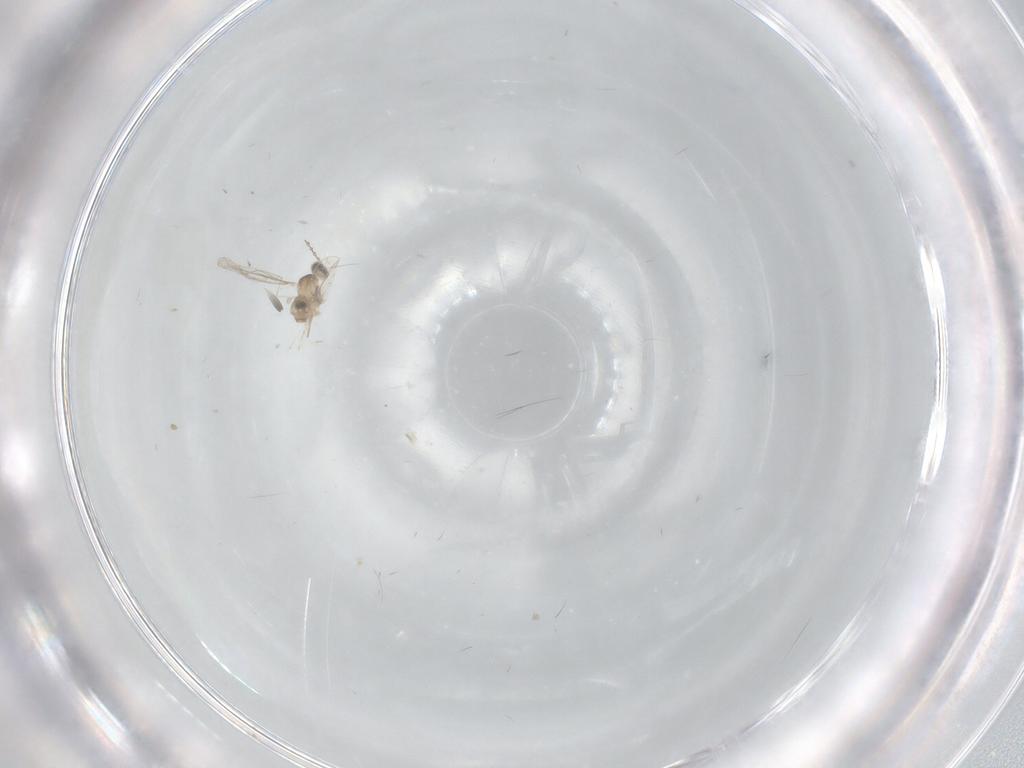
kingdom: Animalia
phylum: Arthropoda
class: Insecta
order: Diptera
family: Cecidomyiidae
